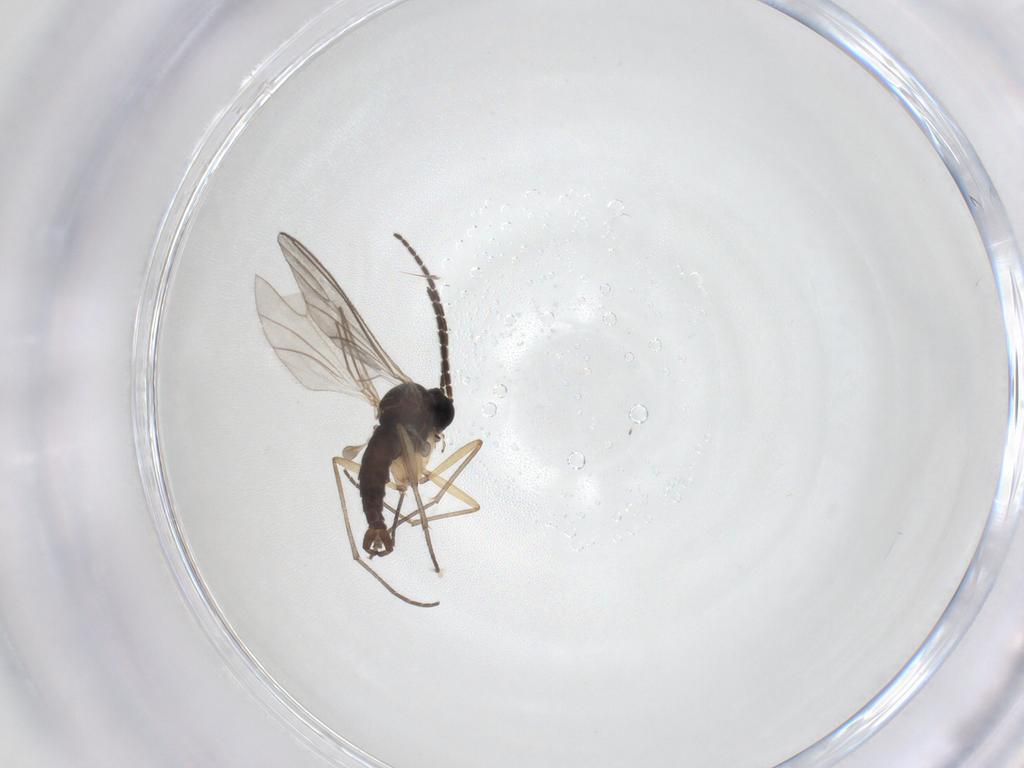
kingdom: Animalia
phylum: Arthropoda
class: Insecta
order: Diptera
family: Sciaridae
